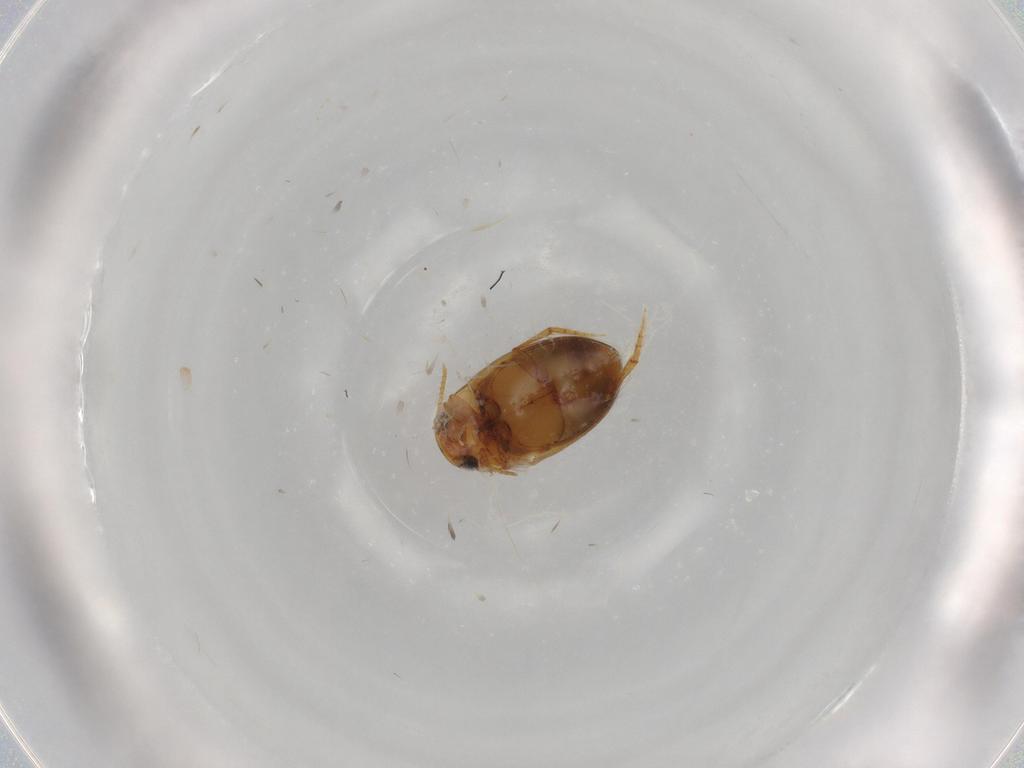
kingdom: Animalia
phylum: Arthropoda
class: Insecta
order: Coleoptera
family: Dytiscidae
